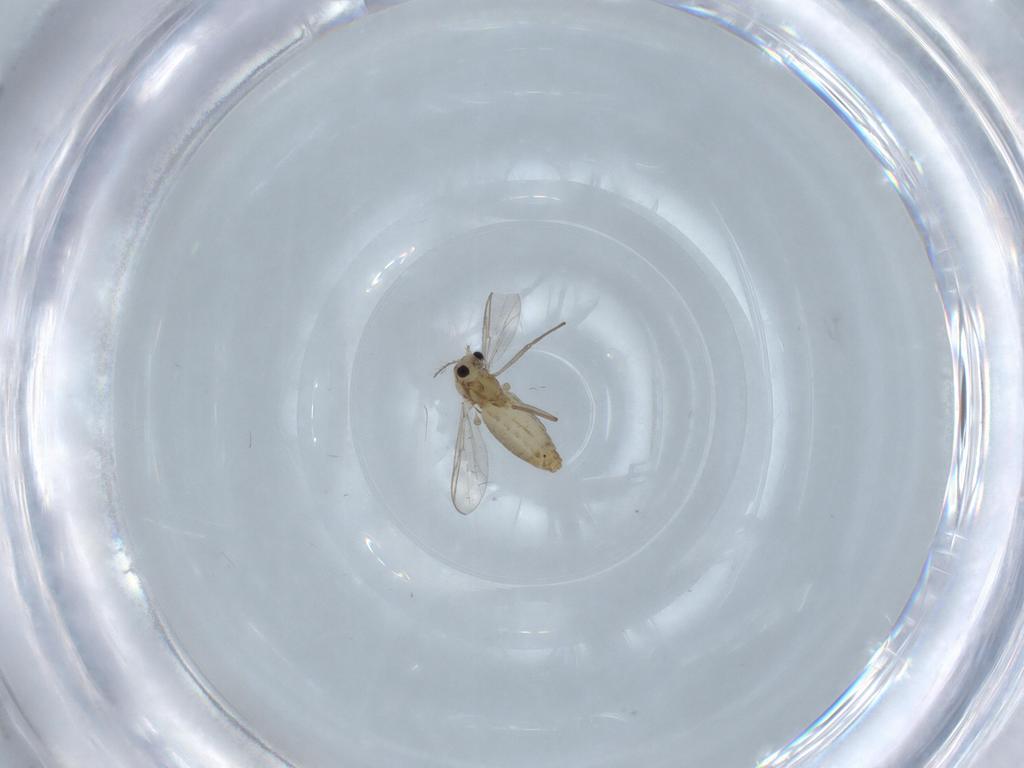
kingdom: Animalia
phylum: Arthropoda
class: Insecta
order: Diptera
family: Chironomidae
